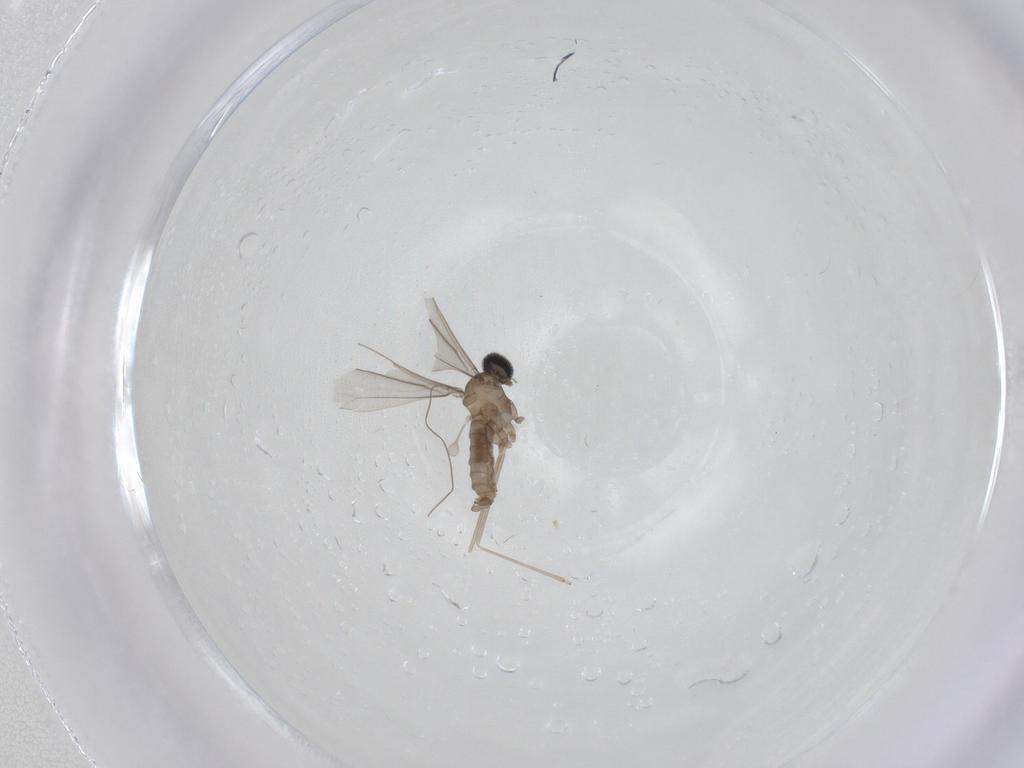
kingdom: Animalia
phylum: Arthropoda
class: Insecta
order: Diptera
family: Cecidomyiidae
